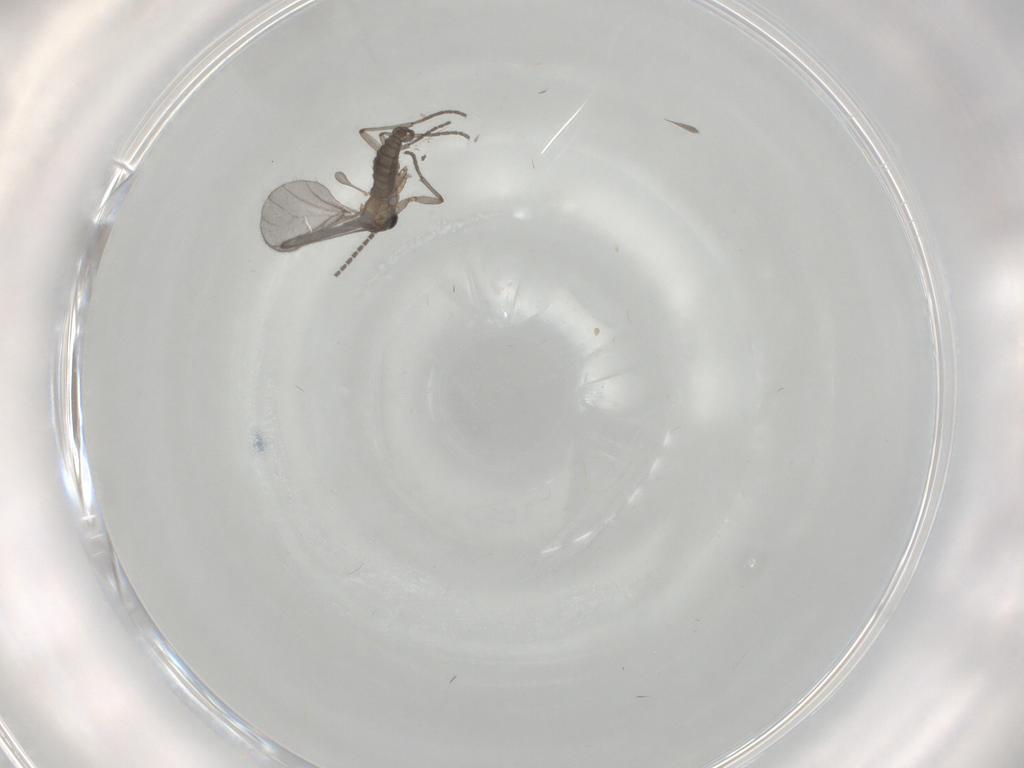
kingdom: Animalia
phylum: Arthropoda
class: Insecta
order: Diptera
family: Sciaridae
